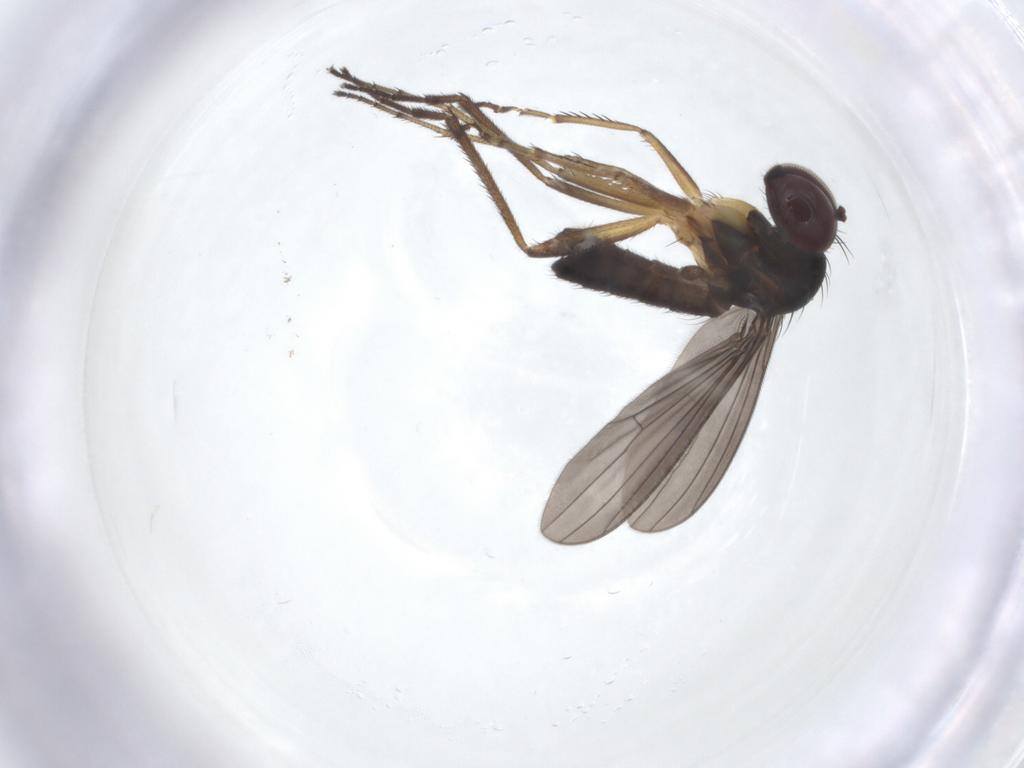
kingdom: Animalia
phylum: Arthropoda
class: Insecta
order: Diptera
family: Dolichopodidae
